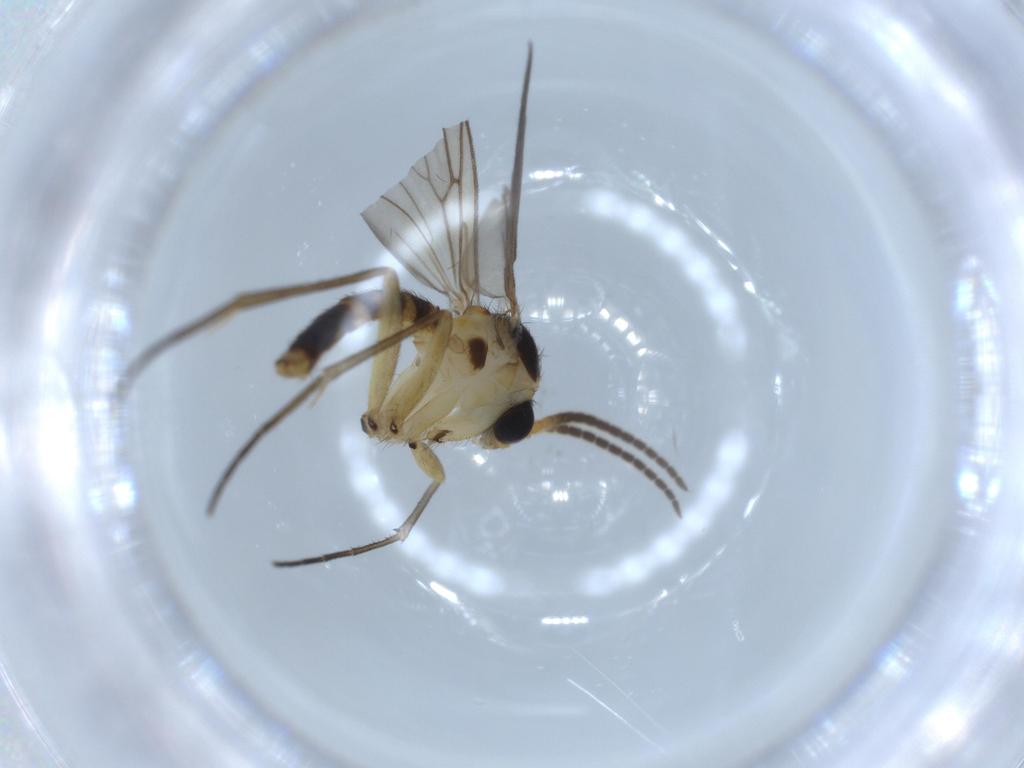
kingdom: Animalia
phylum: Arthropoda
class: Insecta
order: Diptera
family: Mycetophilidae
